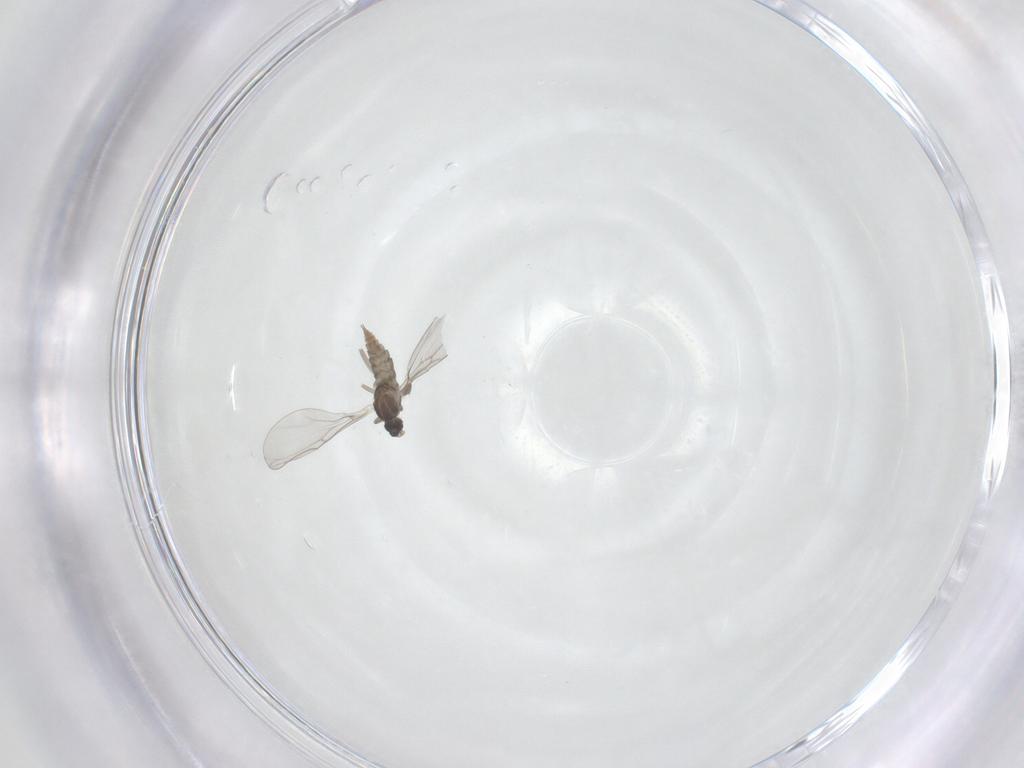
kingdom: Animalia
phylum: Arthropoda
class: Insecta
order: Diptera
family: Cecidomyiidae
